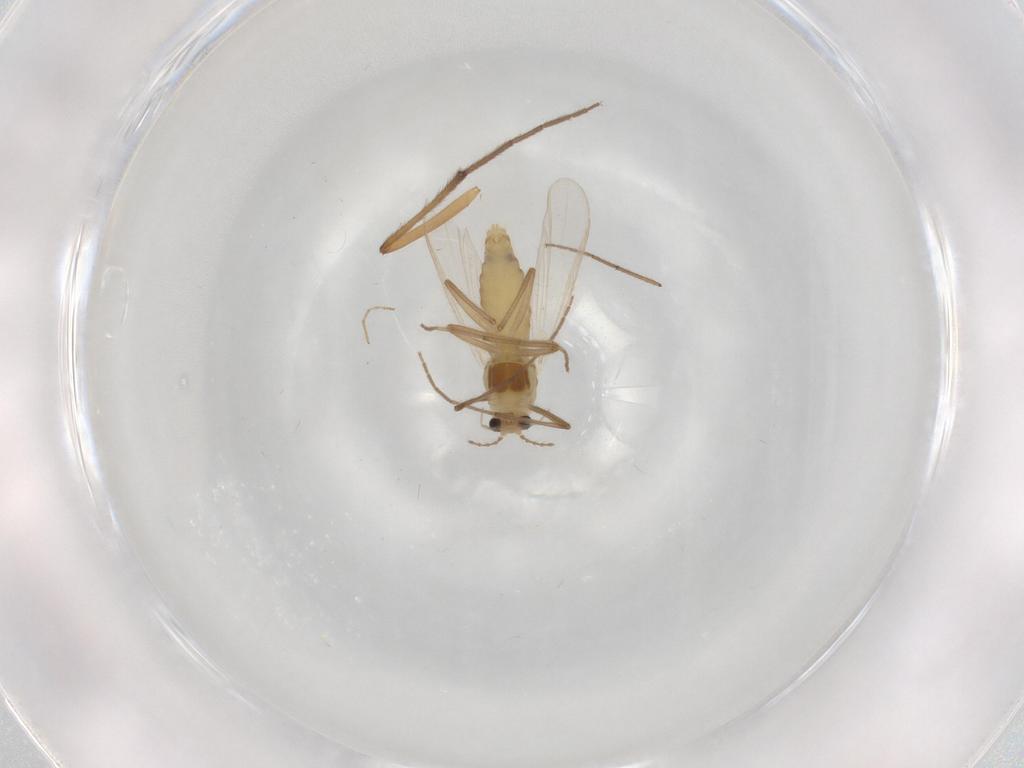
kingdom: Animalia
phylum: Arthropoda
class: Insecta
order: Diptera
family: Chironomidae
